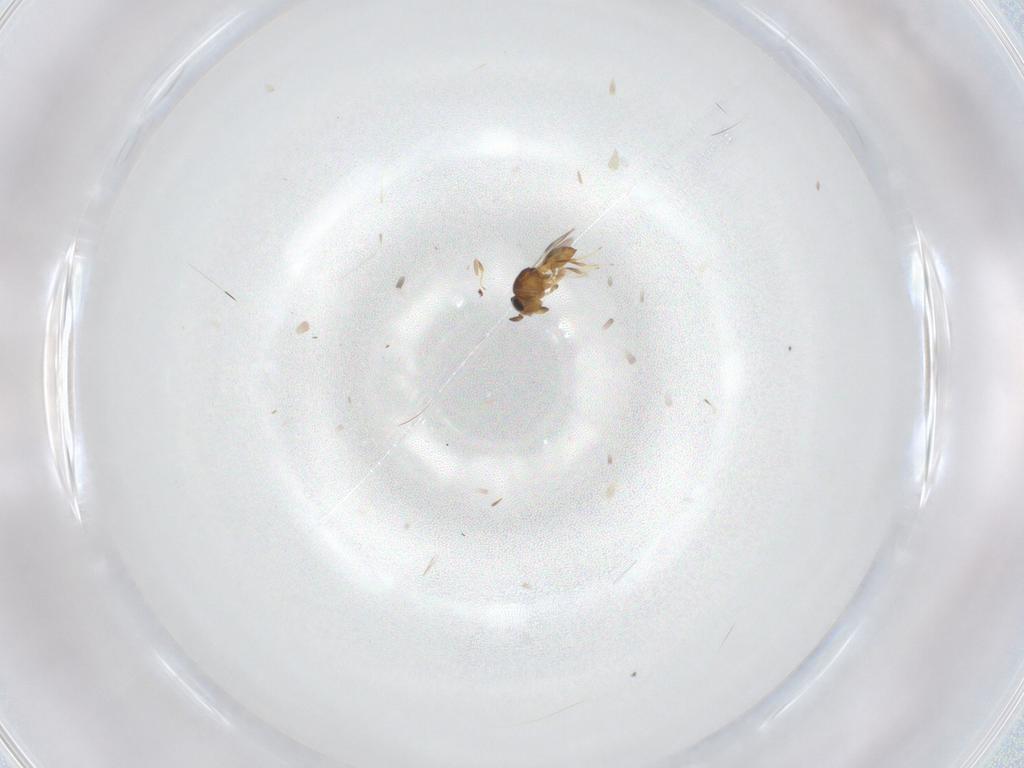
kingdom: Animalia
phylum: Arthropoda
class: Insecta
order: Hymenoptera
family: Scelionidae
